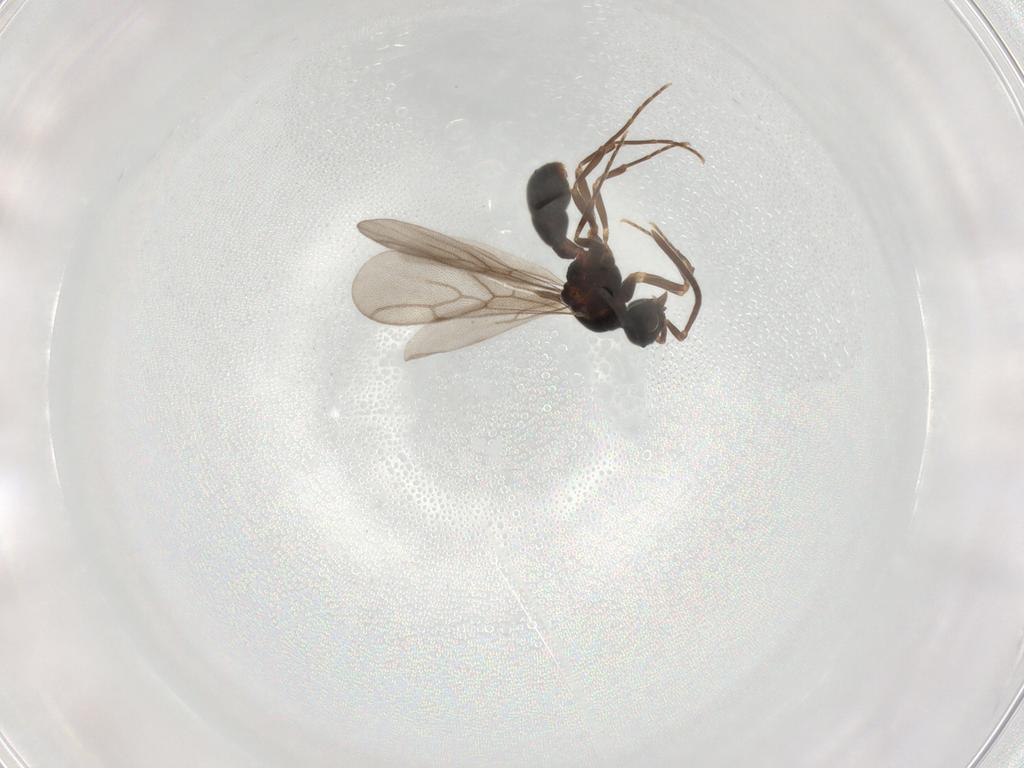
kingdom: Animalia
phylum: Arthropoda
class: Insecta
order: Hymenoptera
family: Formicidae
